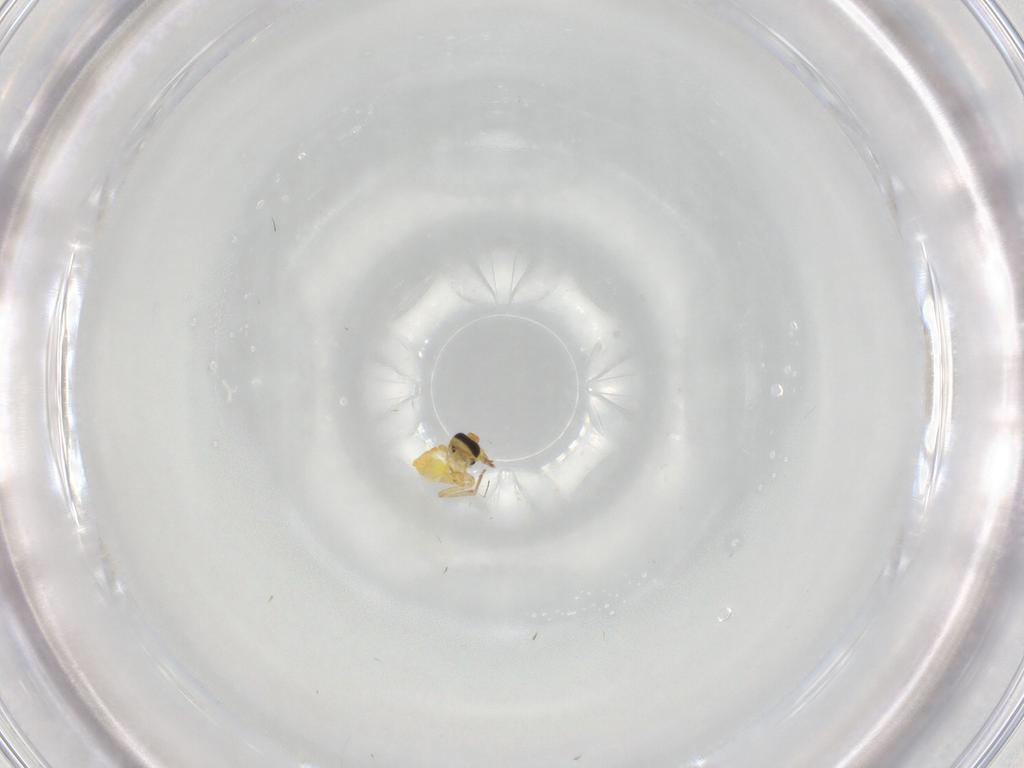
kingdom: Animalia
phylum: Arthropoda
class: Insecta
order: Diptera
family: Ceratopogonidae
